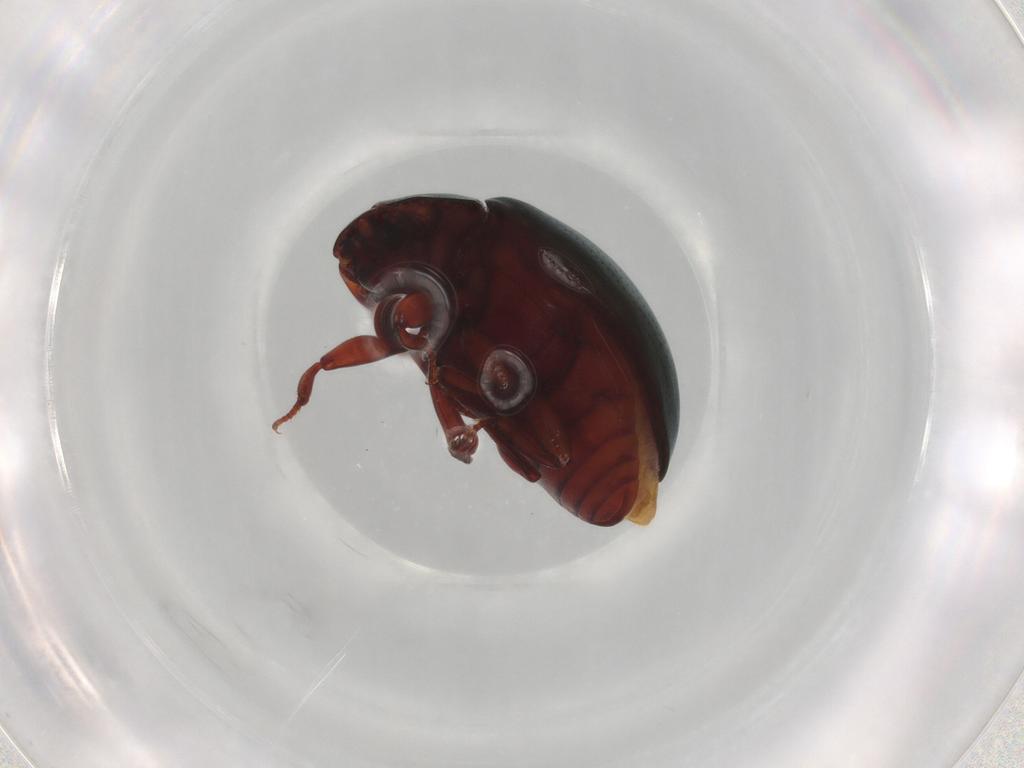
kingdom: Animalia
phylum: Arthropoda
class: Insecta
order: Coleoptera
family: Zopheridae
